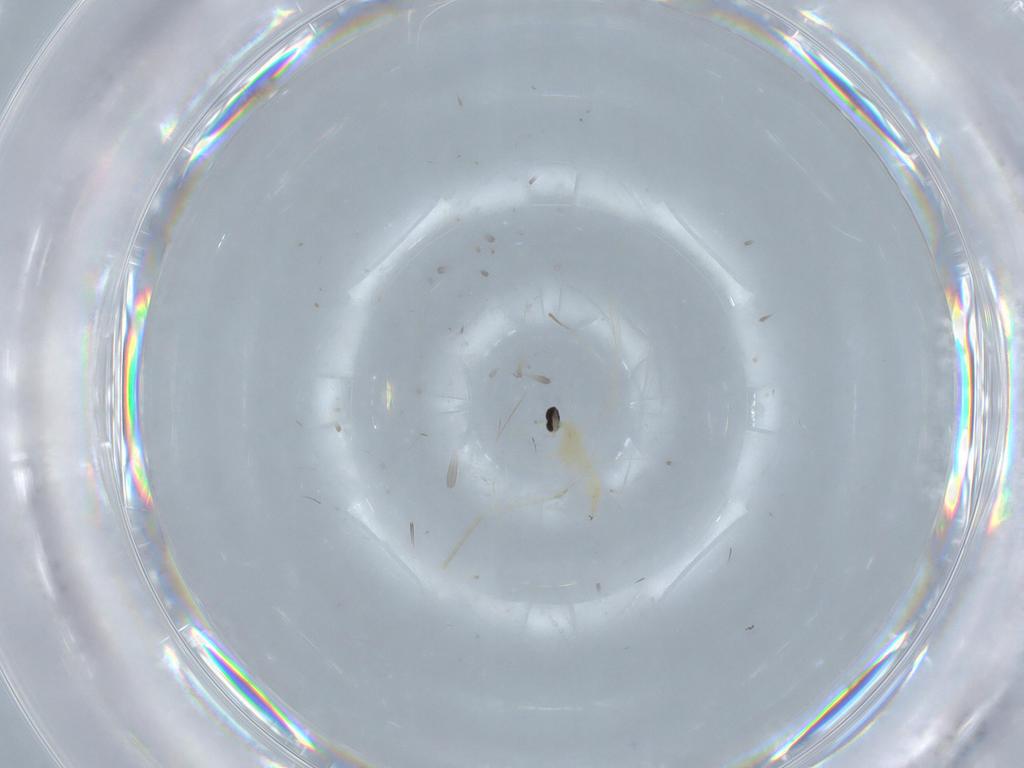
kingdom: Animalia
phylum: Arthropoda
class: Insecta
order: Diptera
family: Cecidomyiidae
